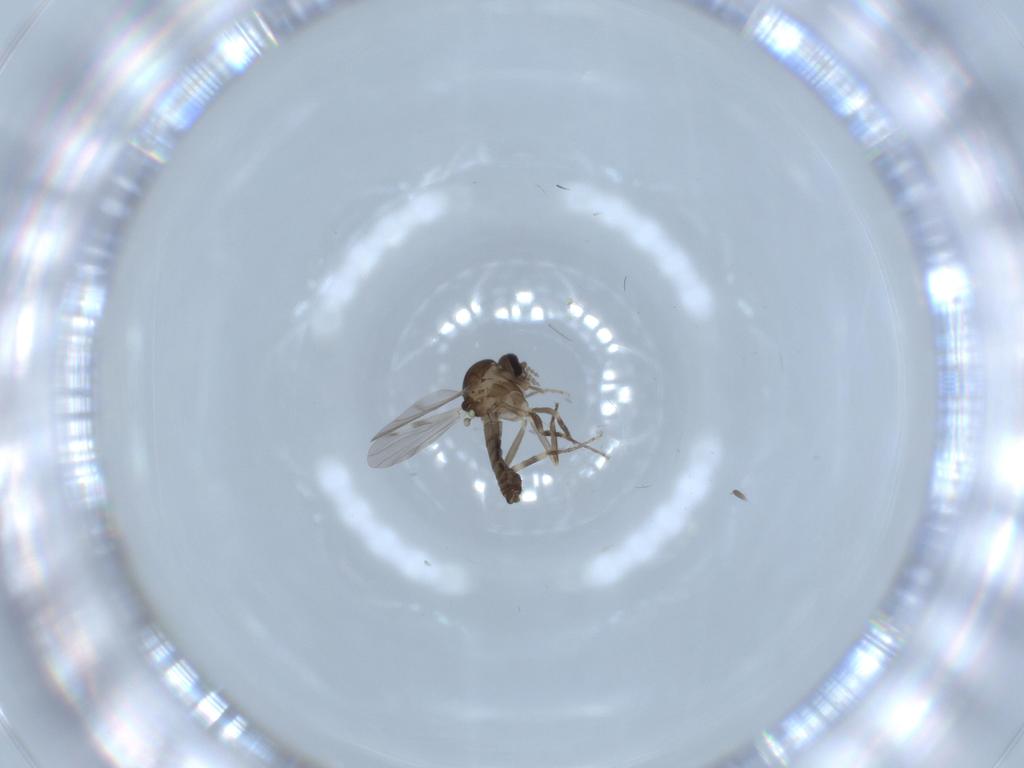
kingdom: Animalia
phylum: Arthropoda
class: Insecta
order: Diptera
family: Ceratopogonidae
